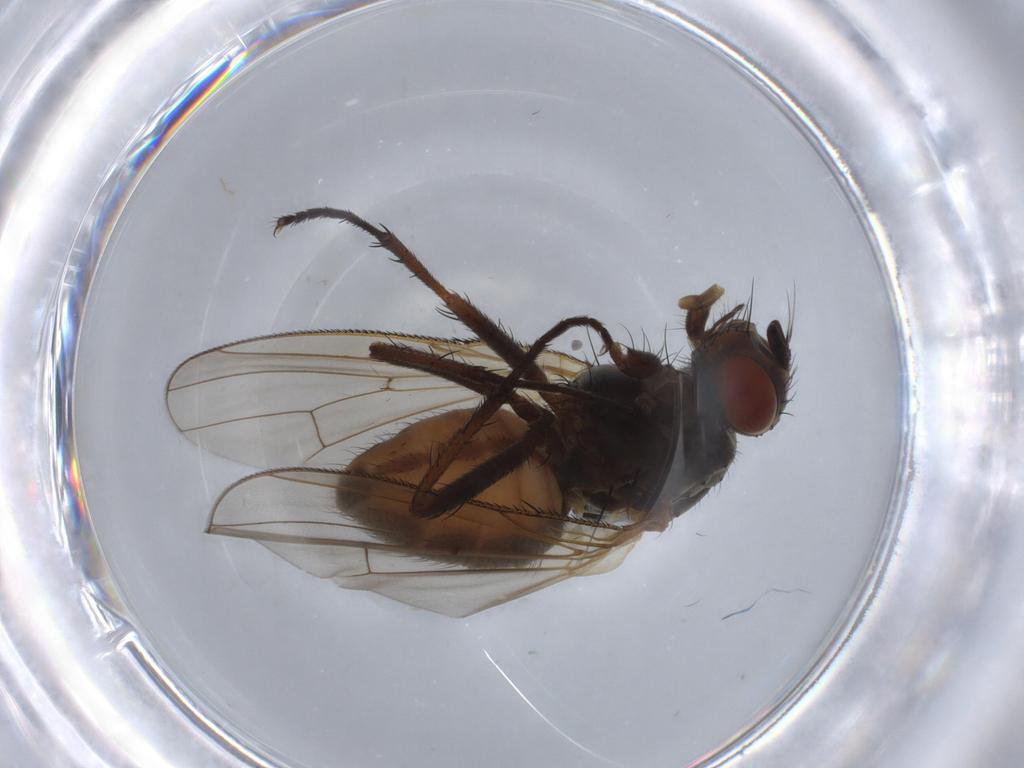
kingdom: Animalia
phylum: Arthropoda
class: Insecta
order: Diptera
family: Anthomyiidae
